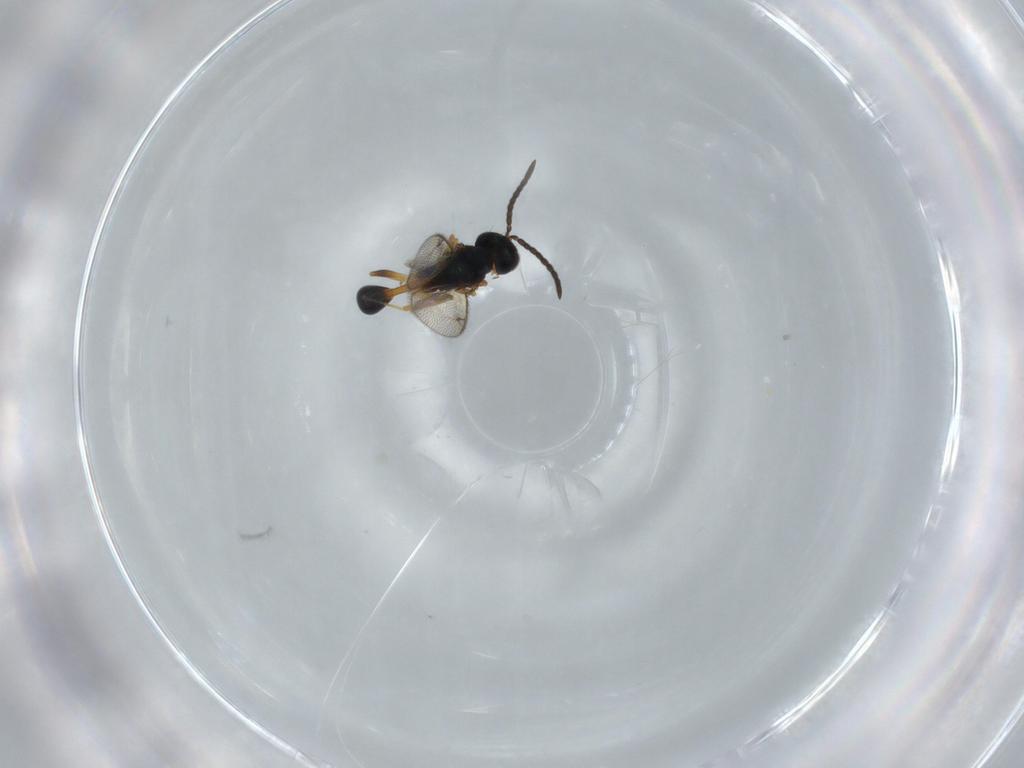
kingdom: Animalia
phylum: Arthropoda
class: Insecta
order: Hymenoptera
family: Diparidae
